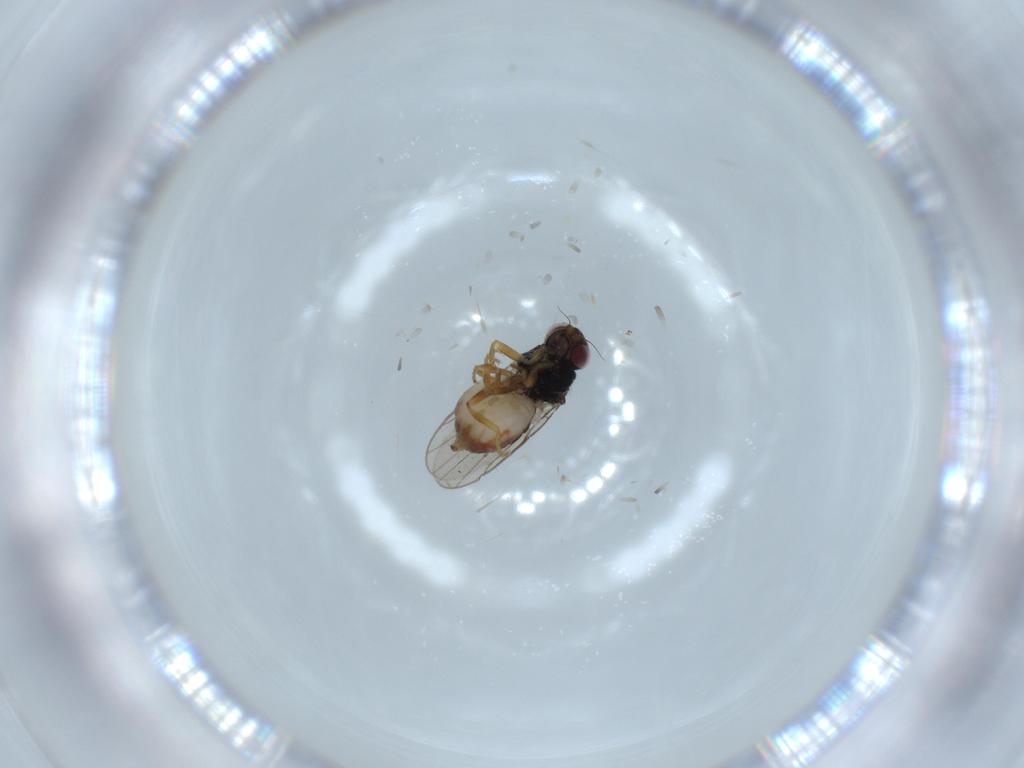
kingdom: Animalia
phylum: Arthropoda
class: Insecta
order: Diptera
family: Chloropidae
